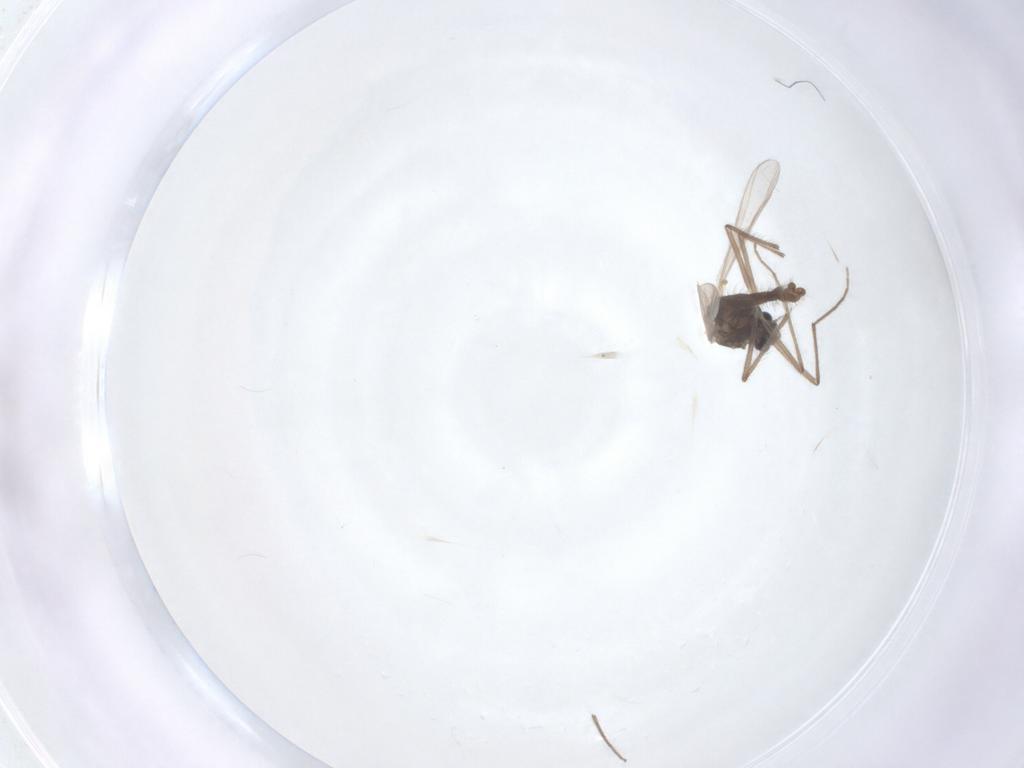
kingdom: Animalia
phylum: Arthropoda
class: Insecta
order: Diptera
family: Chironomidae
